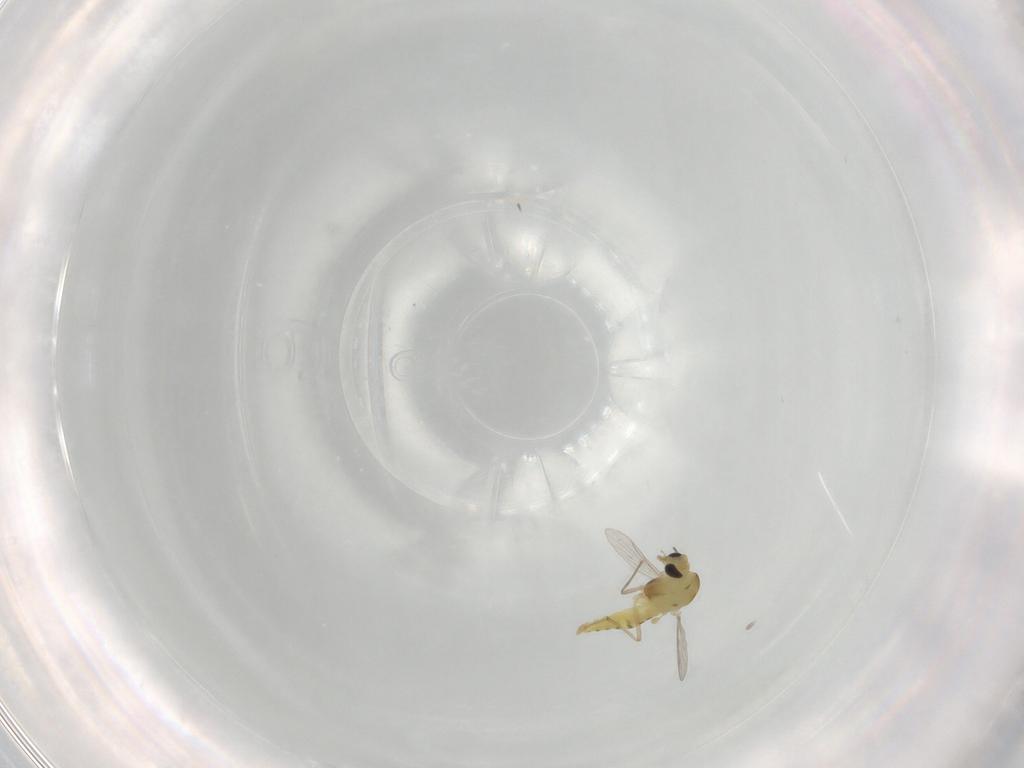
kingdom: Animalia
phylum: Arthropoda
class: Insecta
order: Diptera
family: Chironomidae
